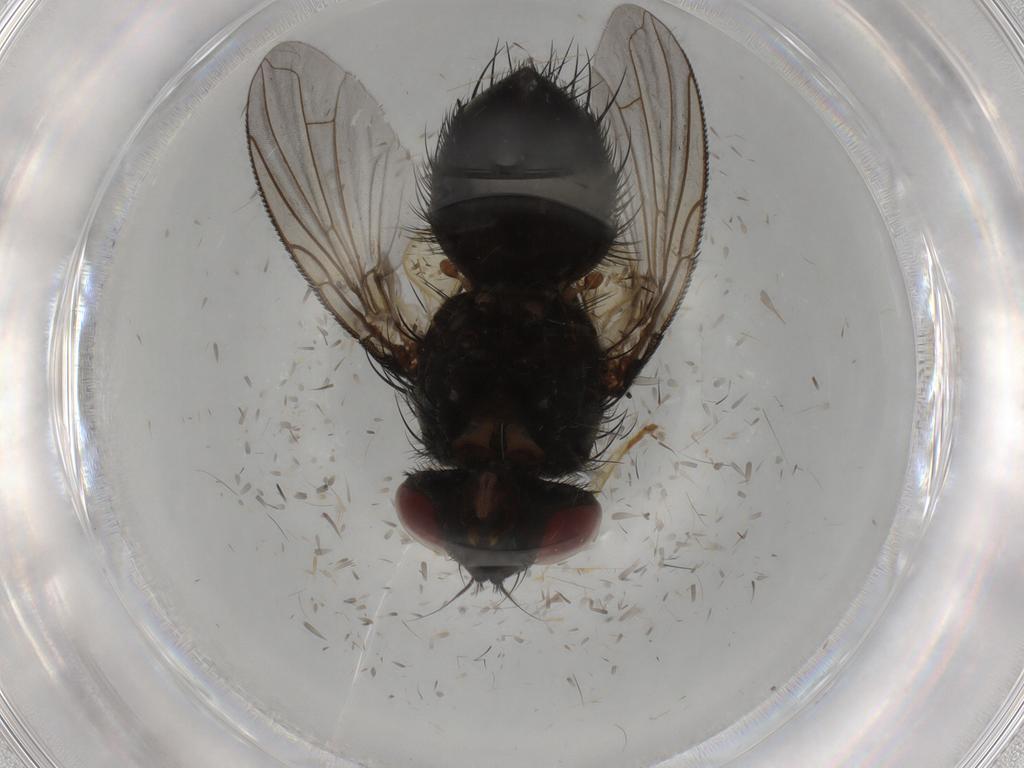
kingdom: Animalia
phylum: Arthropoda
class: Insecta
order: Diptera
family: Chironomidae
